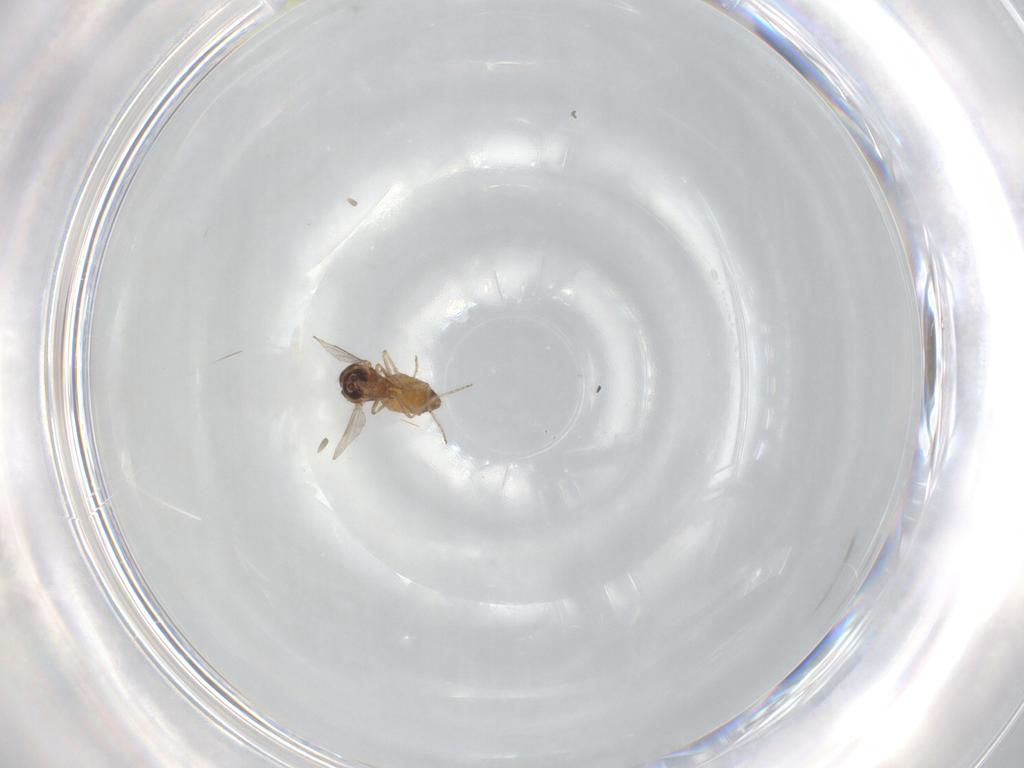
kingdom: Animalia
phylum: Arthropoda
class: Insecta
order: Diptera
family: Ceratopogonidae
